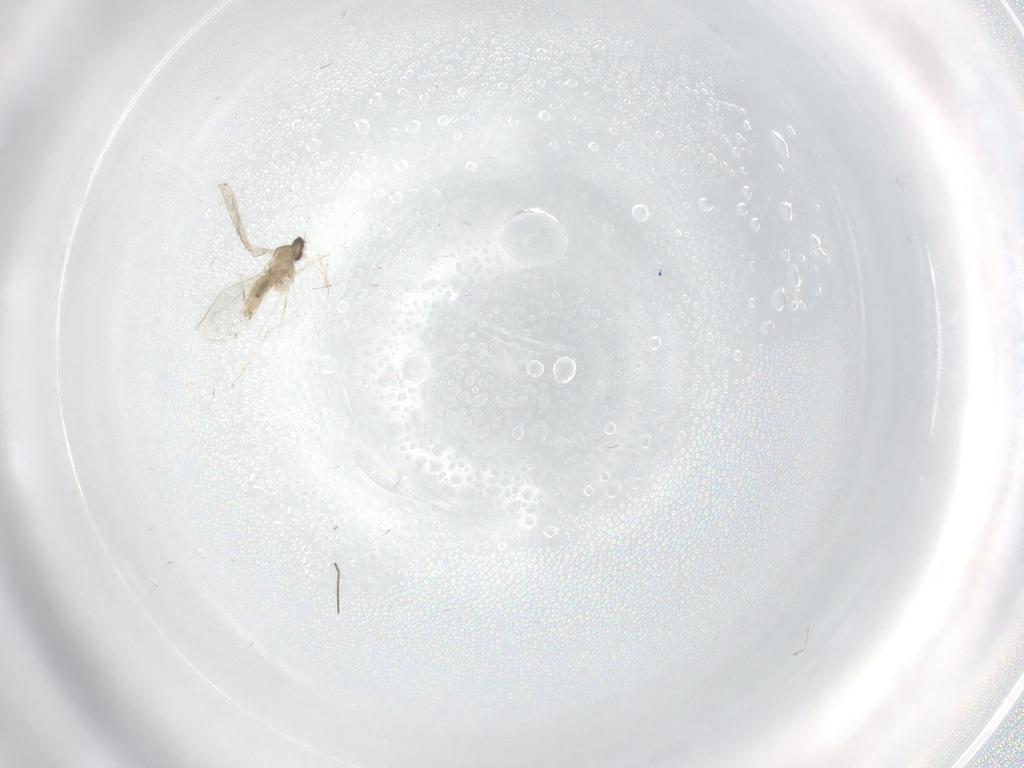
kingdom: Animalia
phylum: Arthropoda
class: Insecta
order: Diptera
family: Chironomidae
